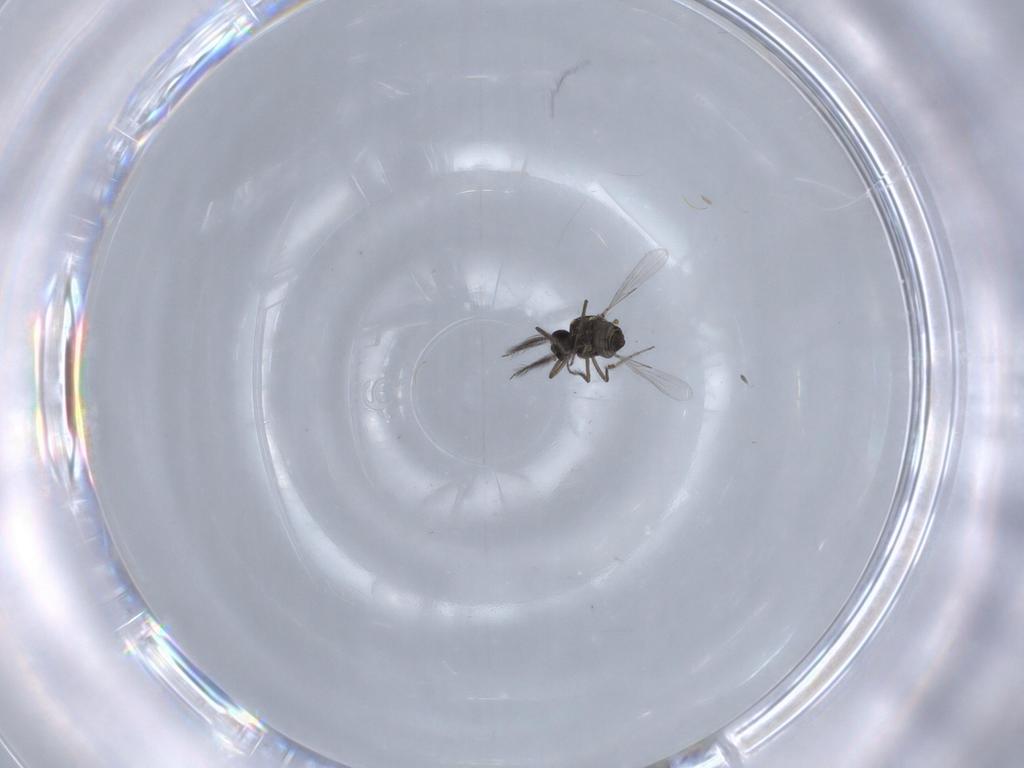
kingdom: Animalia
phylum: Arthropoda
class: Insecta
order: Diptera
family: Ceratopogonidae
